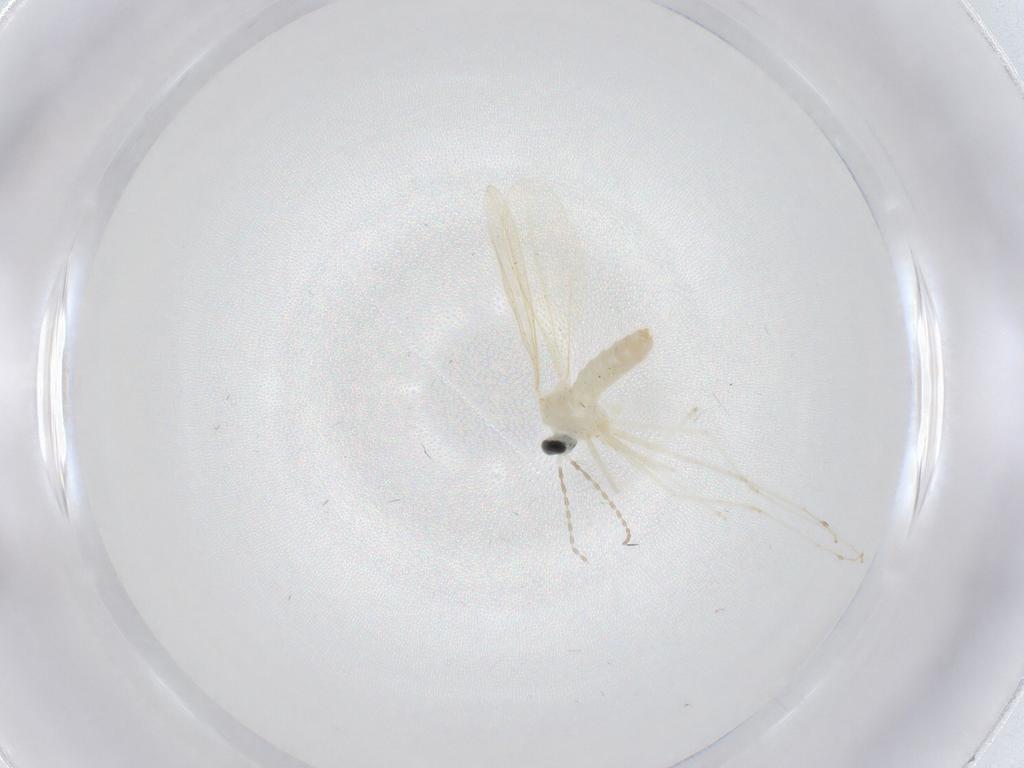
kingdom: Animalia
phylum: Arthropoda
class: Insecta
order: Diptera
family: Cecidomyiidae
